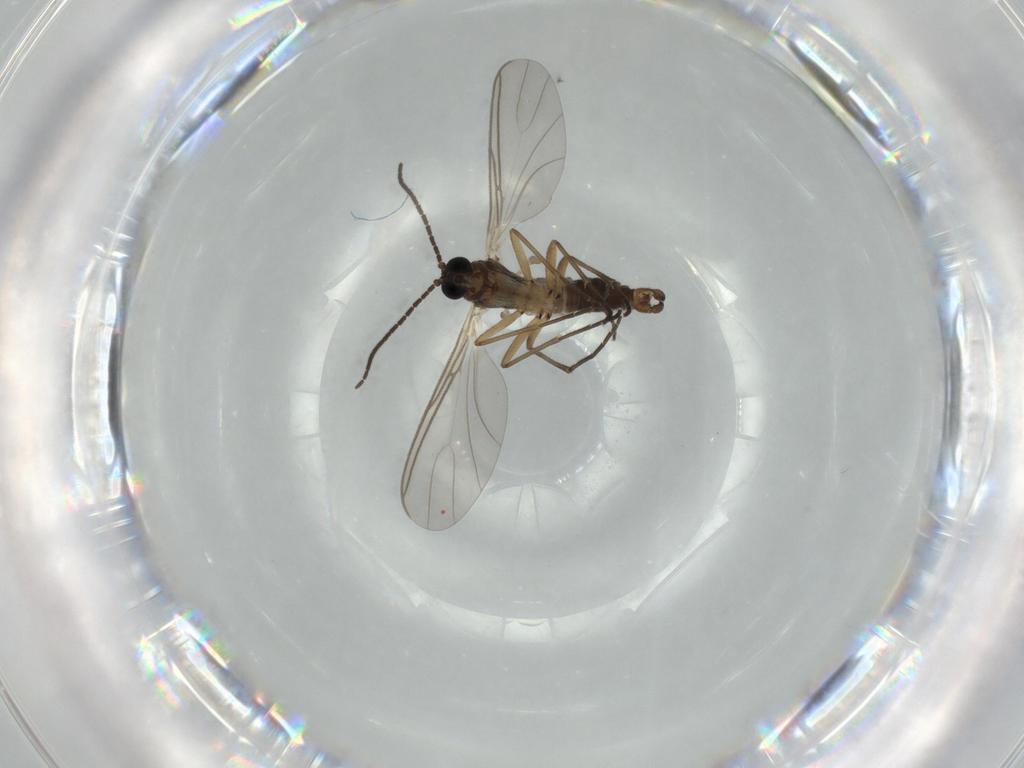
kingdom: Animalia
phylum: Arthropoda
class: Insecta
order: Diptera
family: Sciaridae
